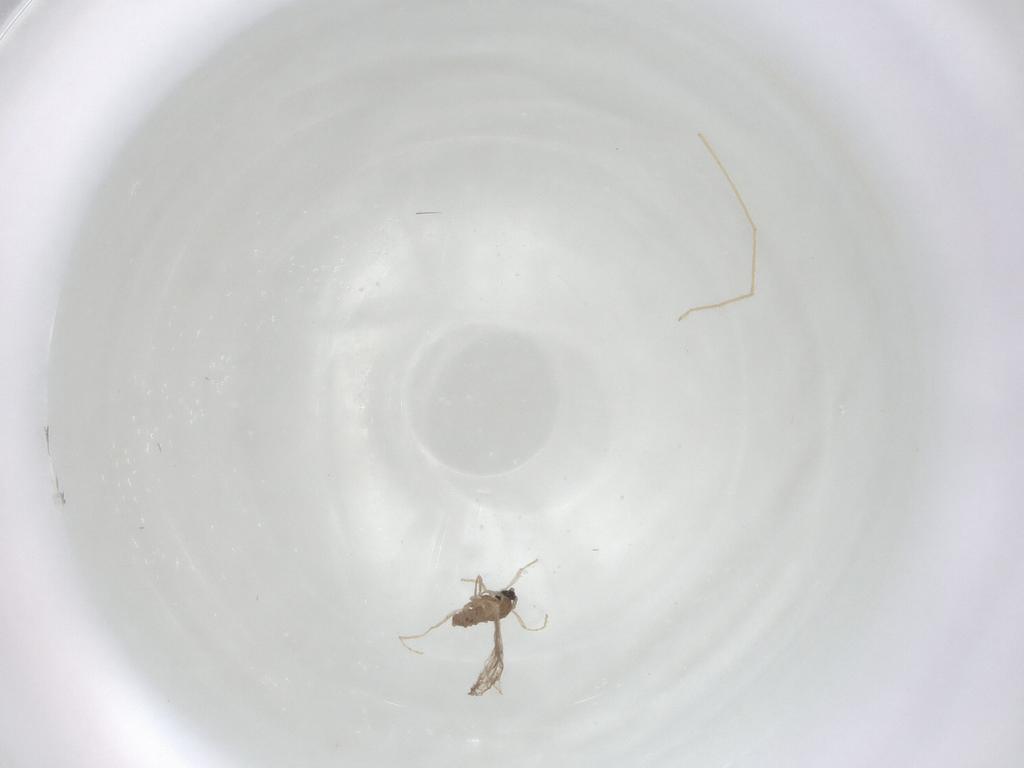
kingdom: Animalia
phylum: Arthropoda
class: Insecta
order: Diptera
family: Cecidomyiidae
